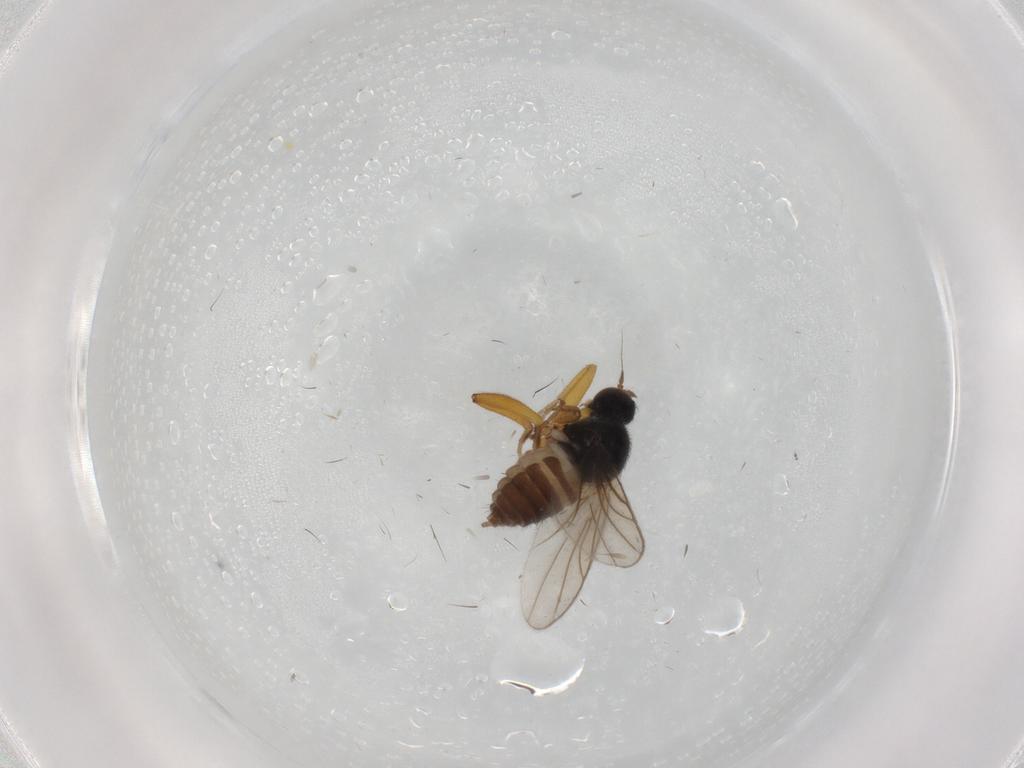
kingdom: Animalia
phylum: Arthropoda
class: Insecta
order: Diptera
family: Hybotidae
